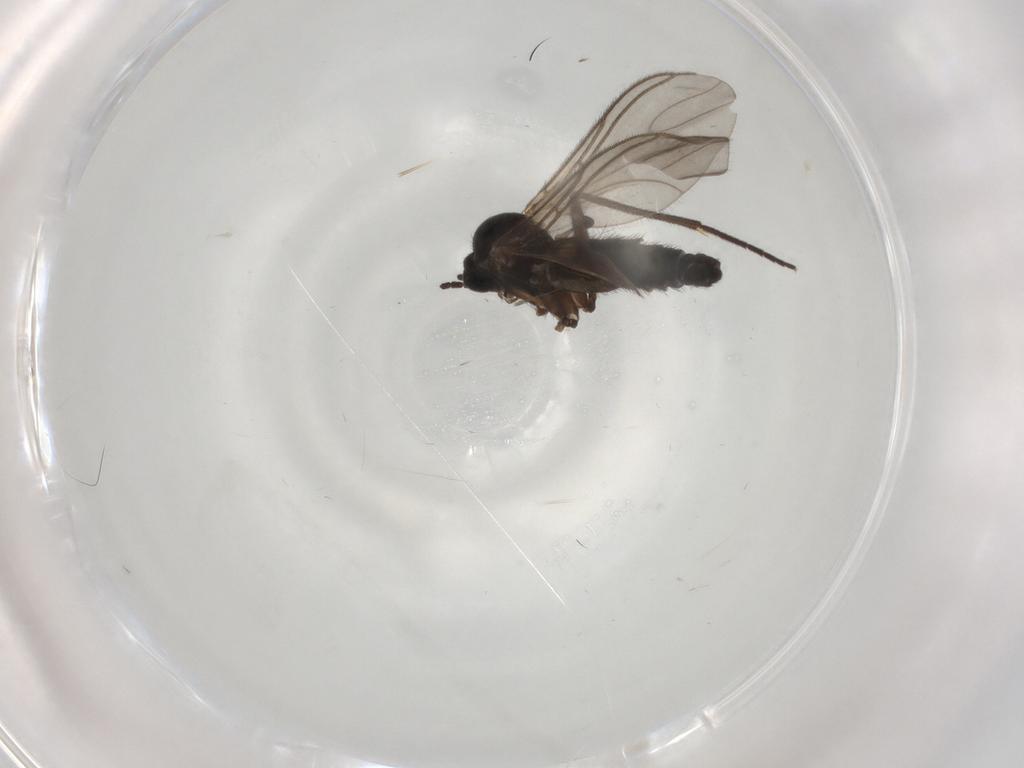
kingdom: Animalia
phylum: Arthropoda
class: Insecta
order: Diptera
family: Sciaridae
